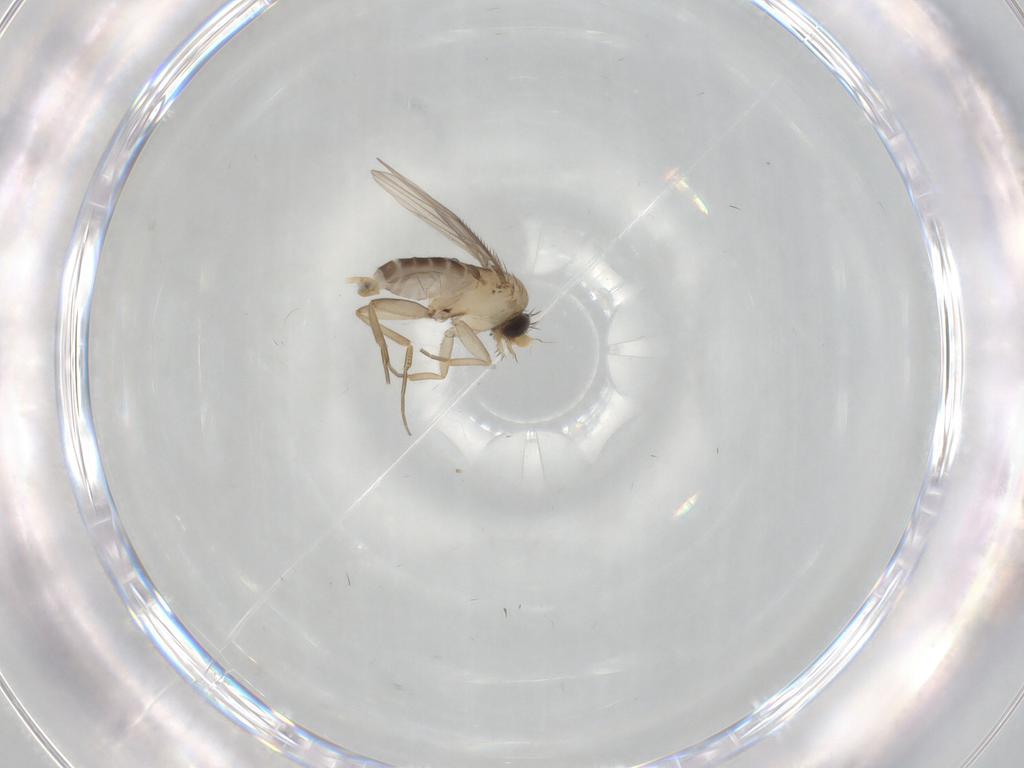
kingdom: Animalia
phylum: Arthropoda
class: Insecta
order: Diptera
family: Phoridae
